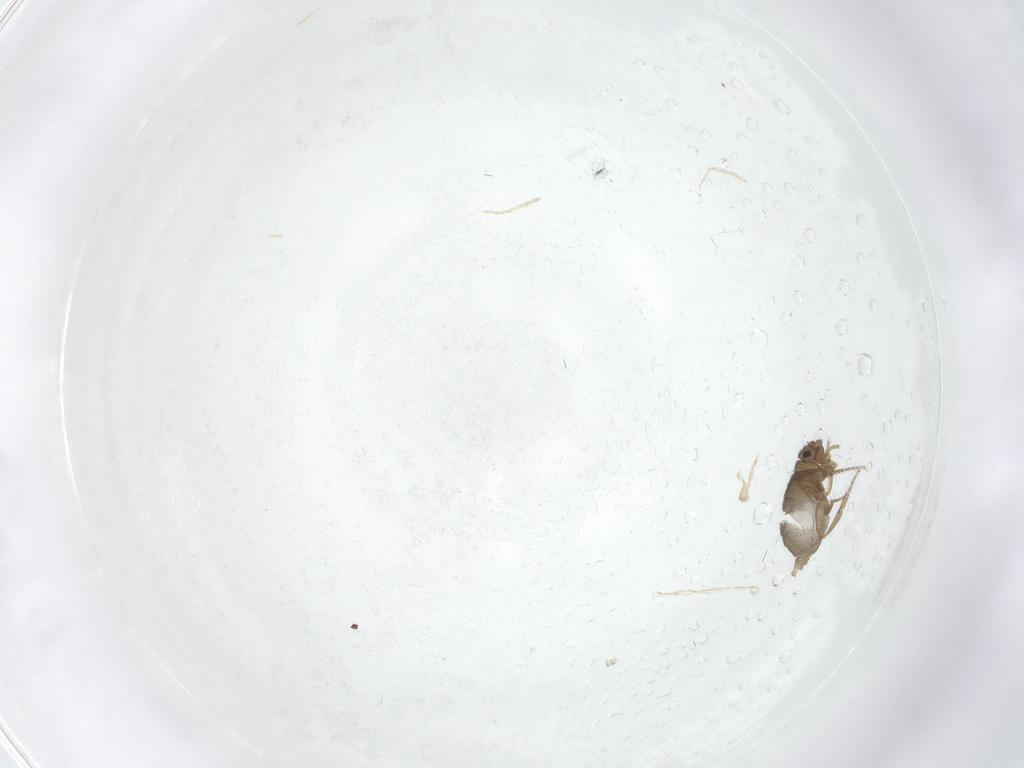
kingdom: Animalia
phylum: Arthropoda
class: Insecta
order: Diptera
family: Phoridae
